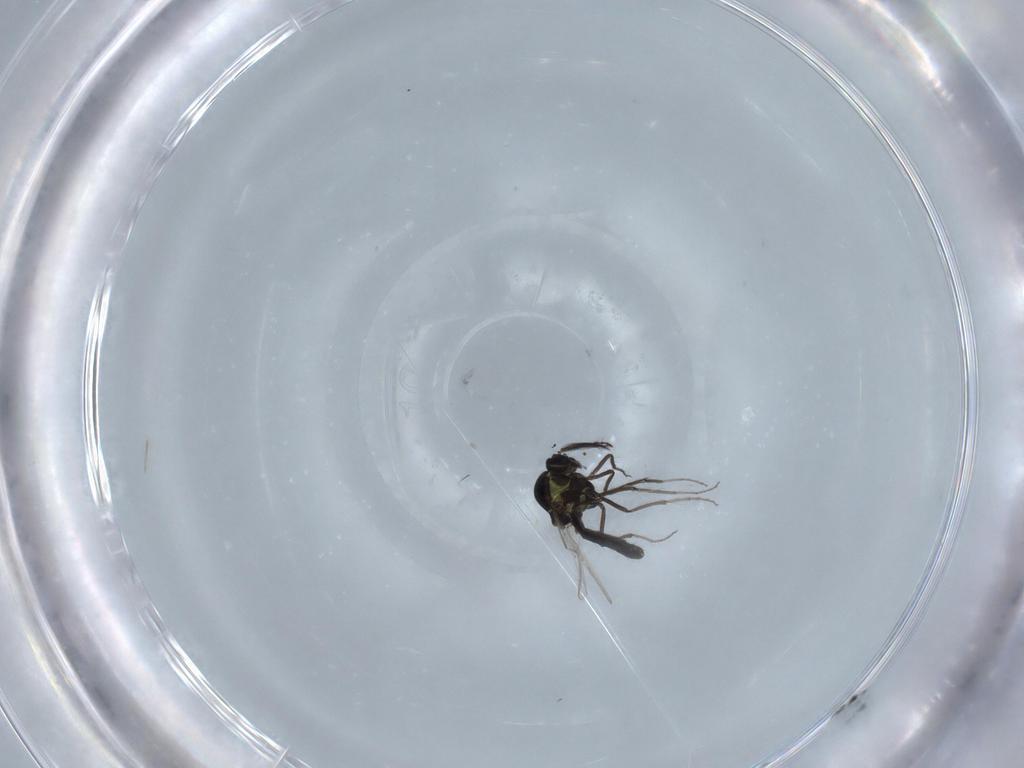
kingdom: Animalia
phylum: Arthropoda
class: Insecta
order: Diptera
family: Ceratopogonidae
